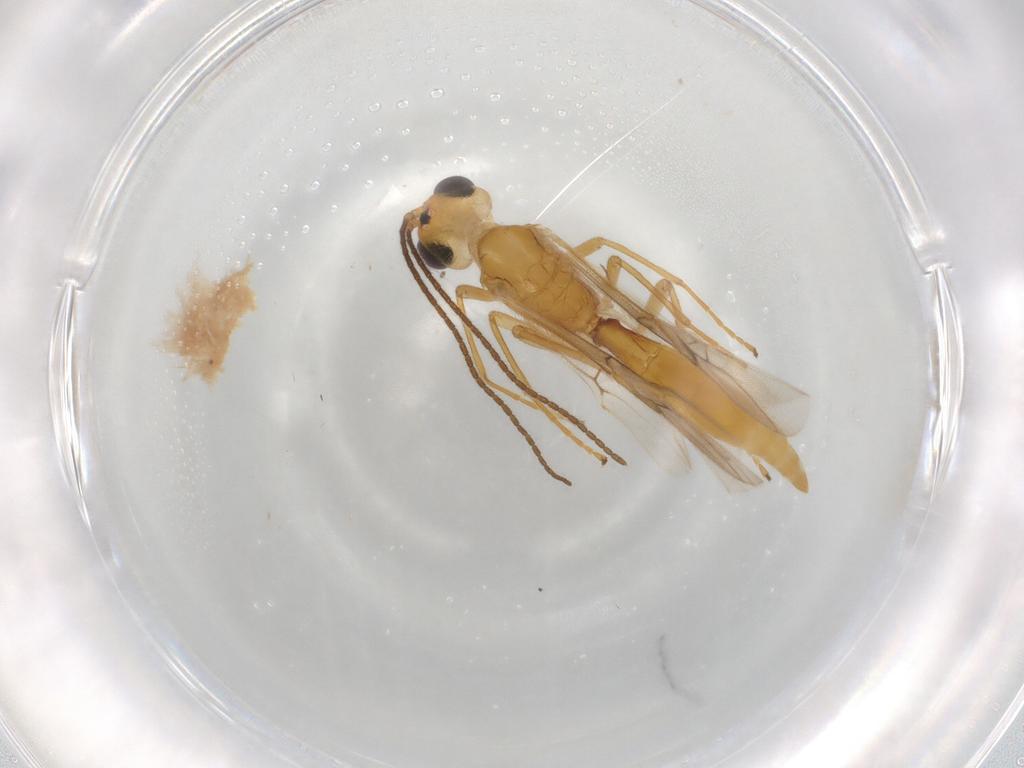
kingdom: Animalia
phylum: Arthropoda
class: Insecta
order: Hymenoptera
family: Braconidae
